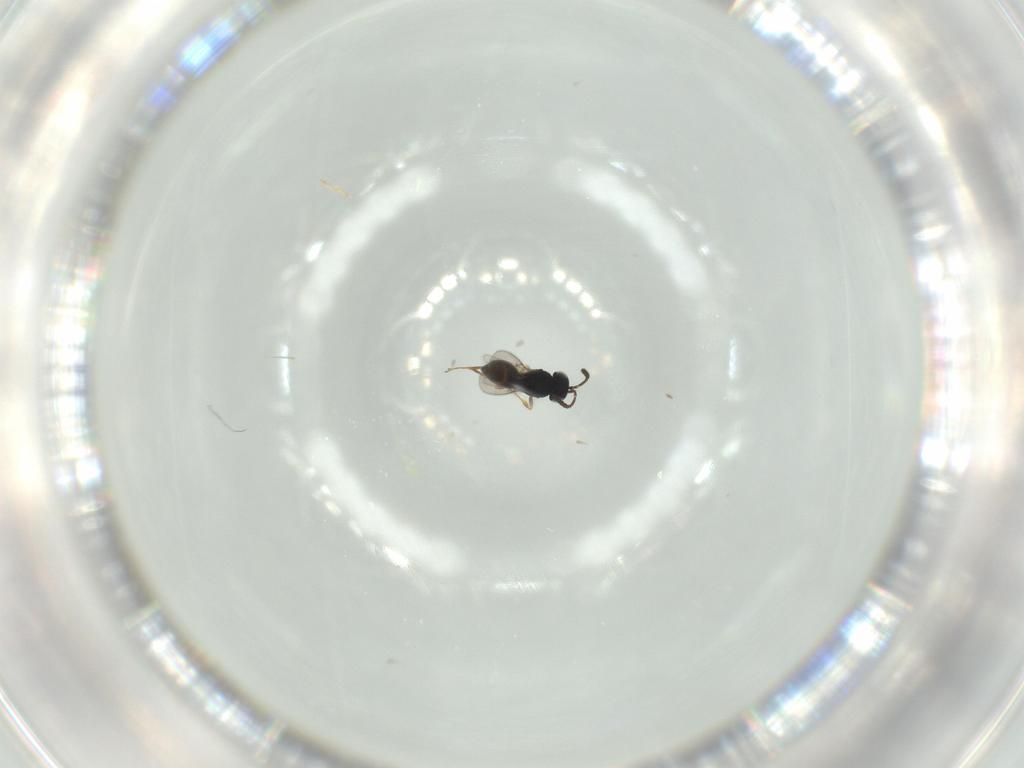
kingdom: Animalia
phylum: Arthropoda
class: Insecta
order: Hymenoptera
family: Scelionidae
